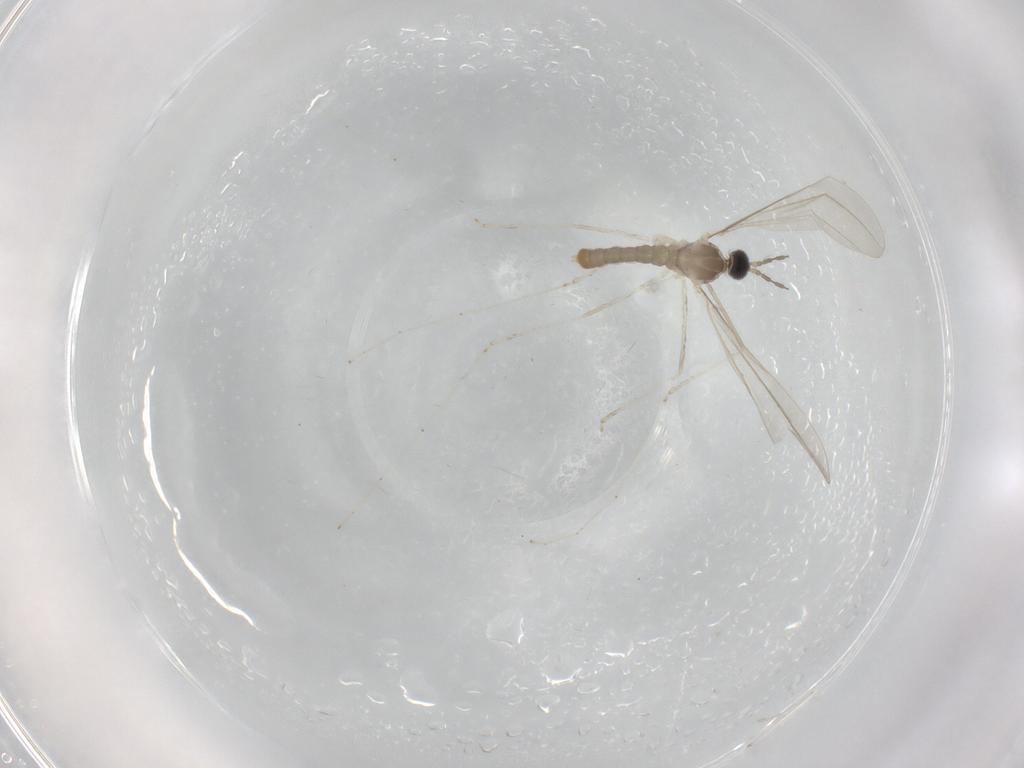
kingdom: Animalia
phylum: Arthropoda
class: Insecta
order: Diptera
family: Cecidomyiidae
